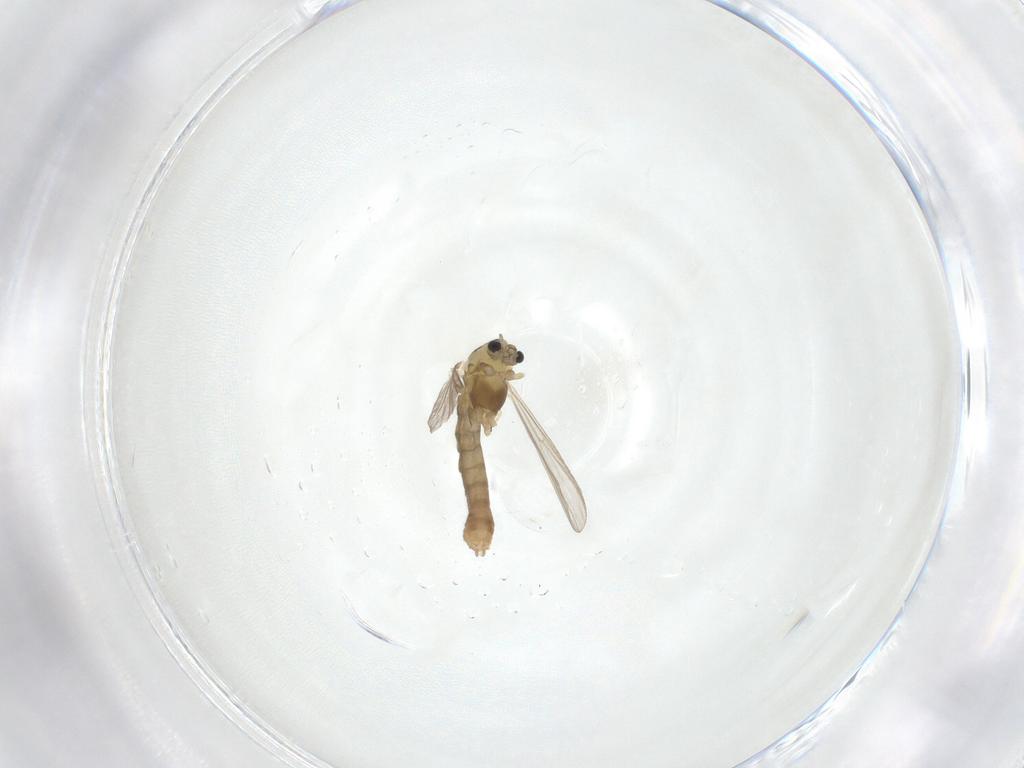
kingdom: Animalia
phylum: Arthropoda
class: Insecta
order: Diptera
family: Chironomidae
